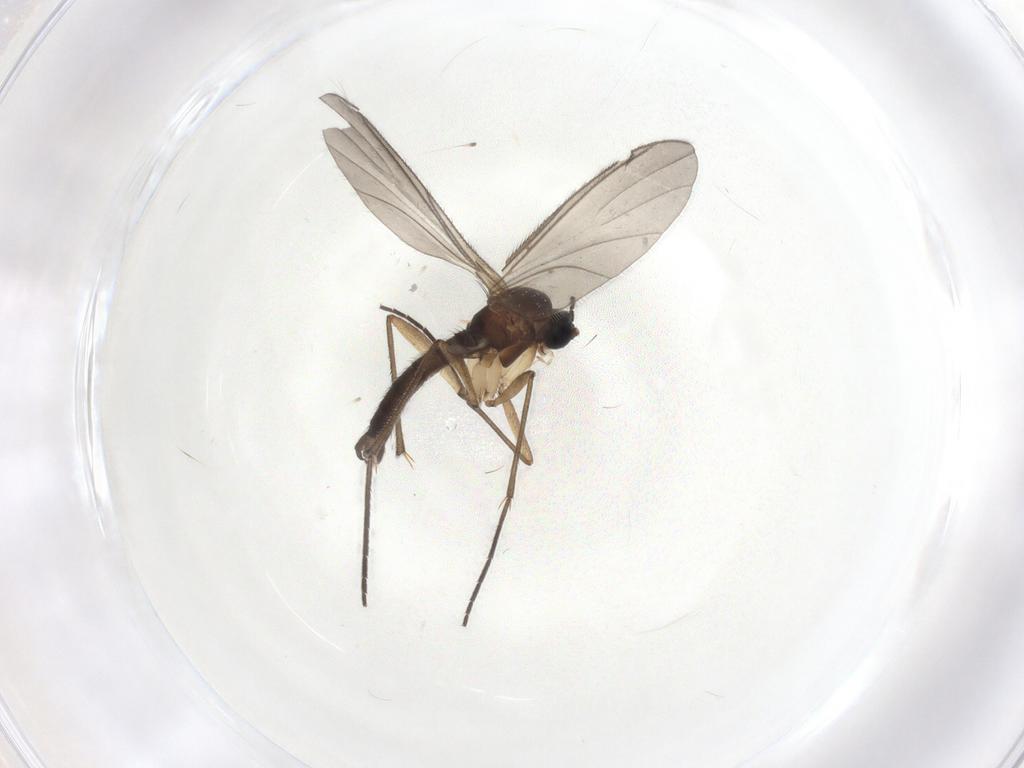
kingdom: Animalia
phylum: Arthropoda
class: Insecta
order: Diptera
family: Sciaridae
